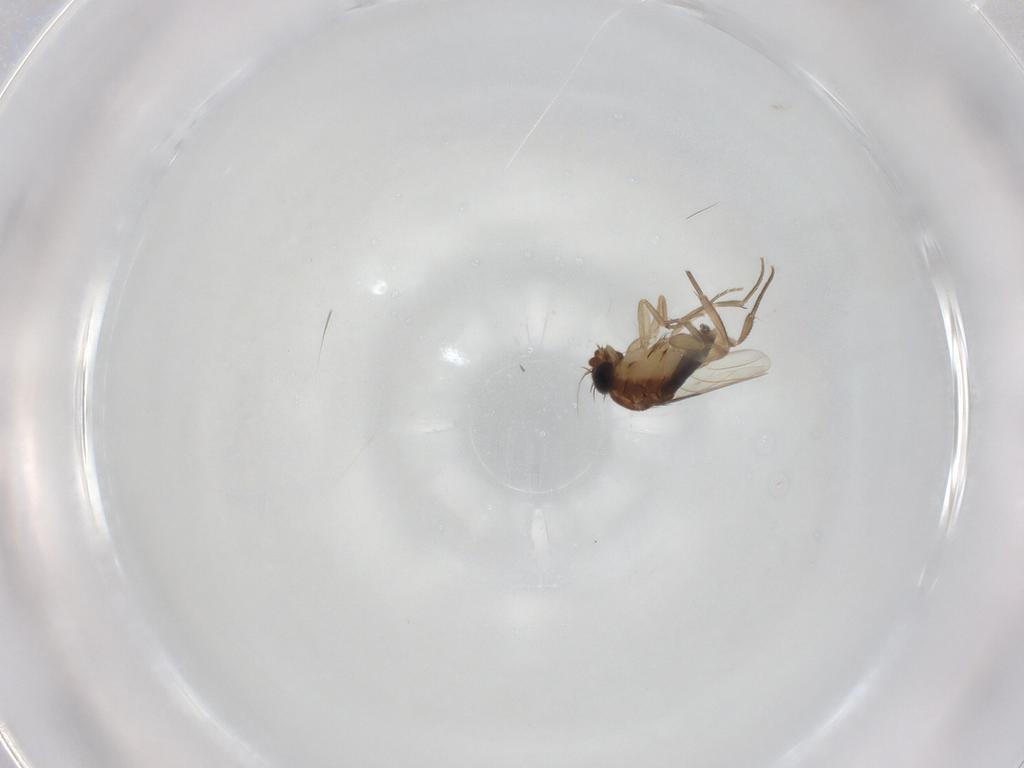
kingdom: Animalia
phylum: Arthropoda
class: Insecta
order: Diptera
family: Phoridae
